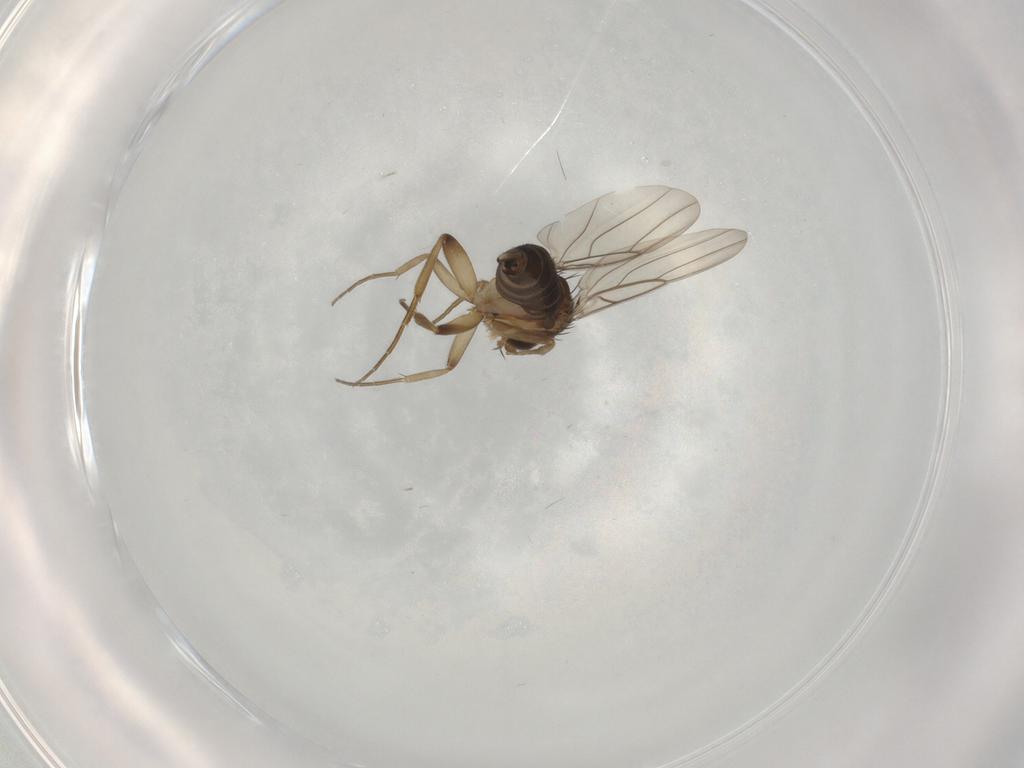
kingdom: Animalia
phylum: Arthropoda
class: Insecta
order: Diptera
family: Phoridae
